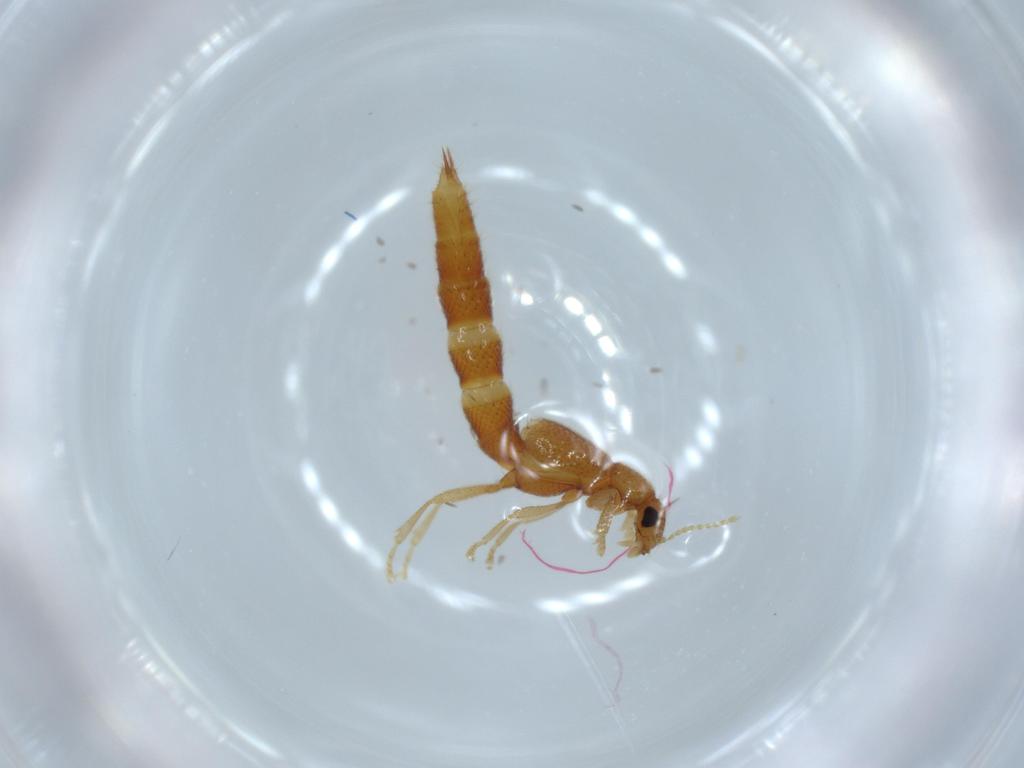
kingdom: Animalia
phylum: Arthropoda
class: Insecta
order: Coleoptera
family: Staphylinidae
